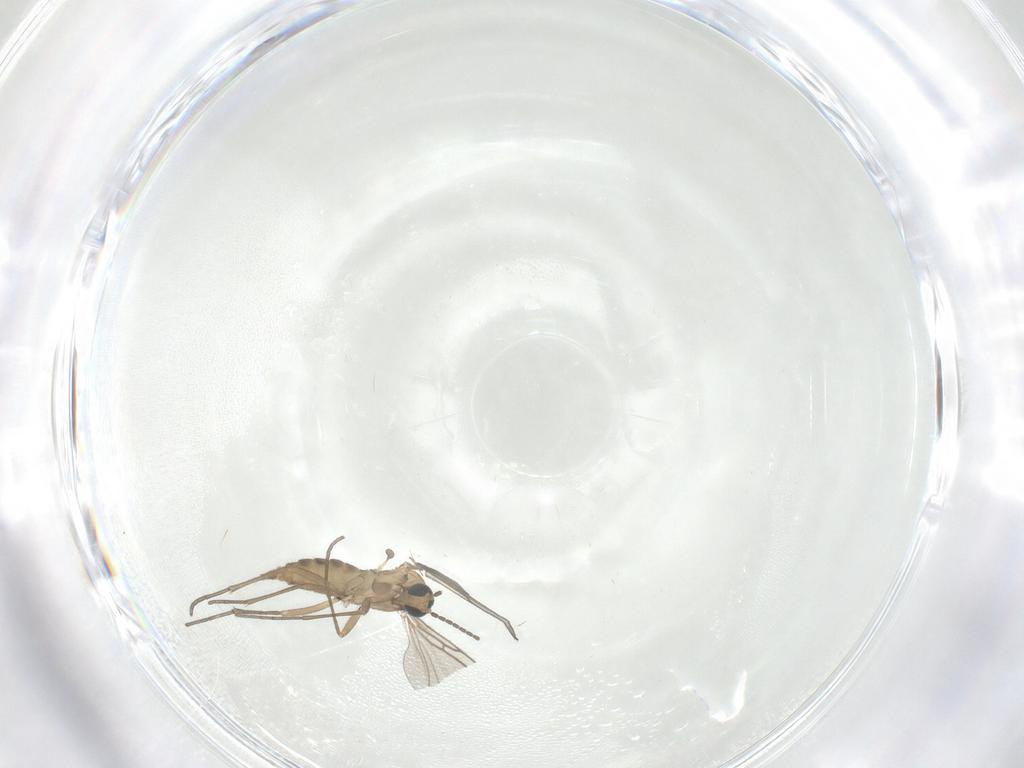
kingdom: Animalia
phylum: Arthropoda
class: Insecta
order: Diptera
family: Sciaridae
